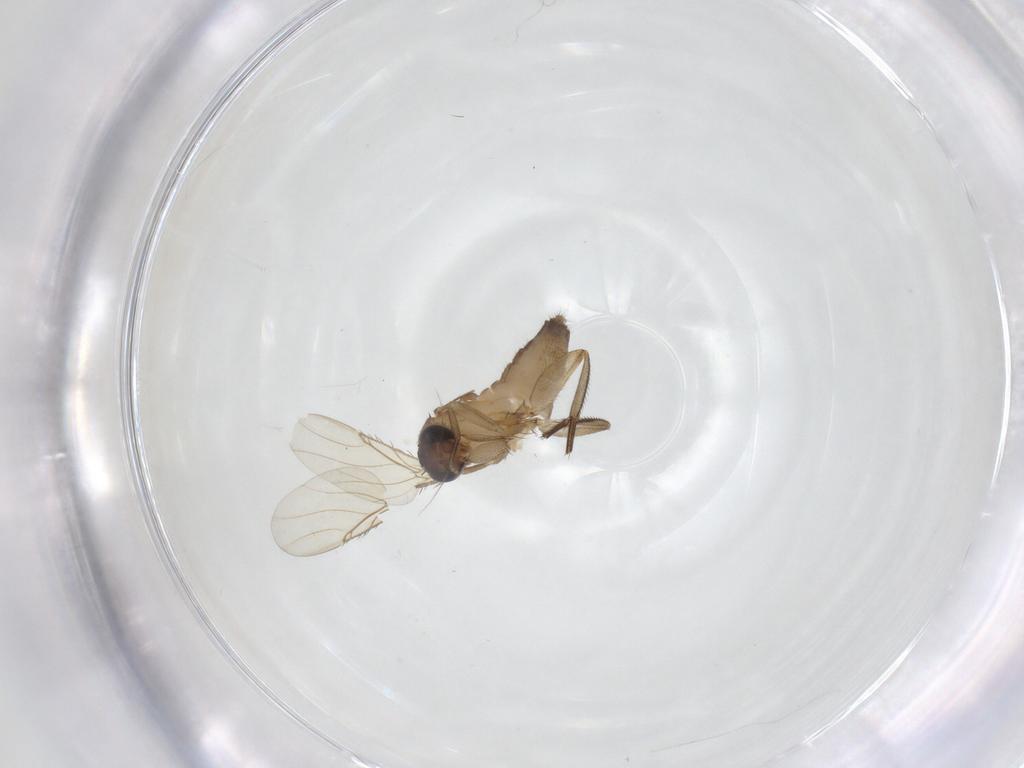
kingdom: Animalia
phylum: Arthropoda
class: Insecta
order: Diptera
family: Phoridae
